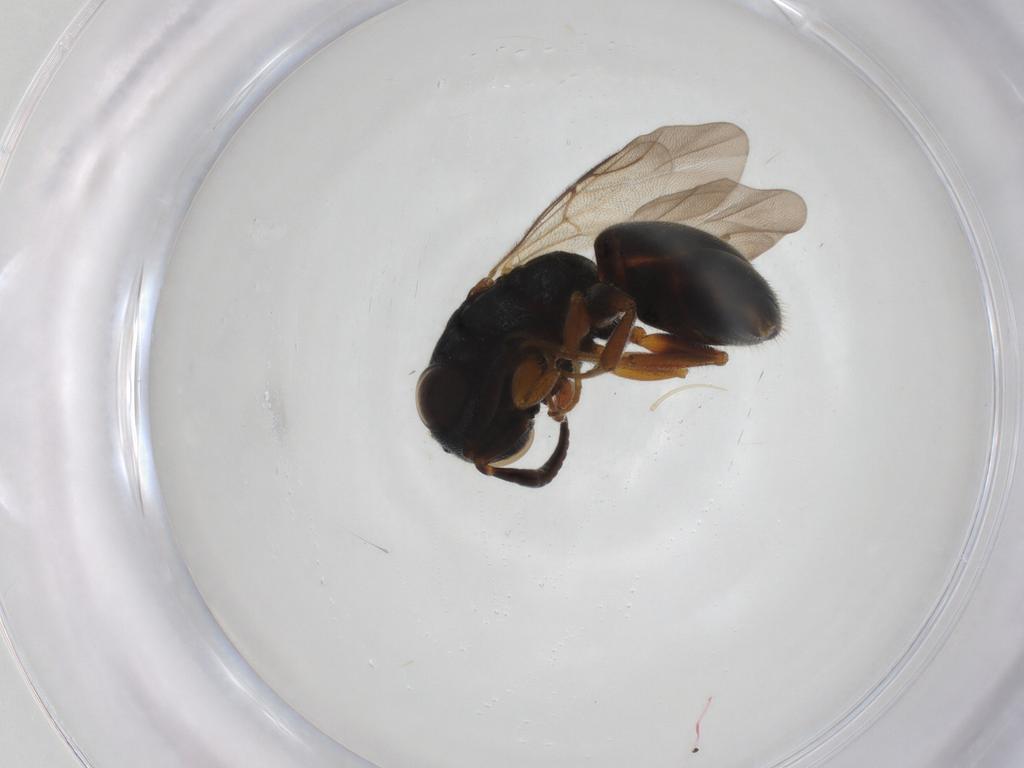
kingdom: Animalia
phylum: Arthropoda
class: Insecta
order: Hymenoptera
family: Chrysididae
